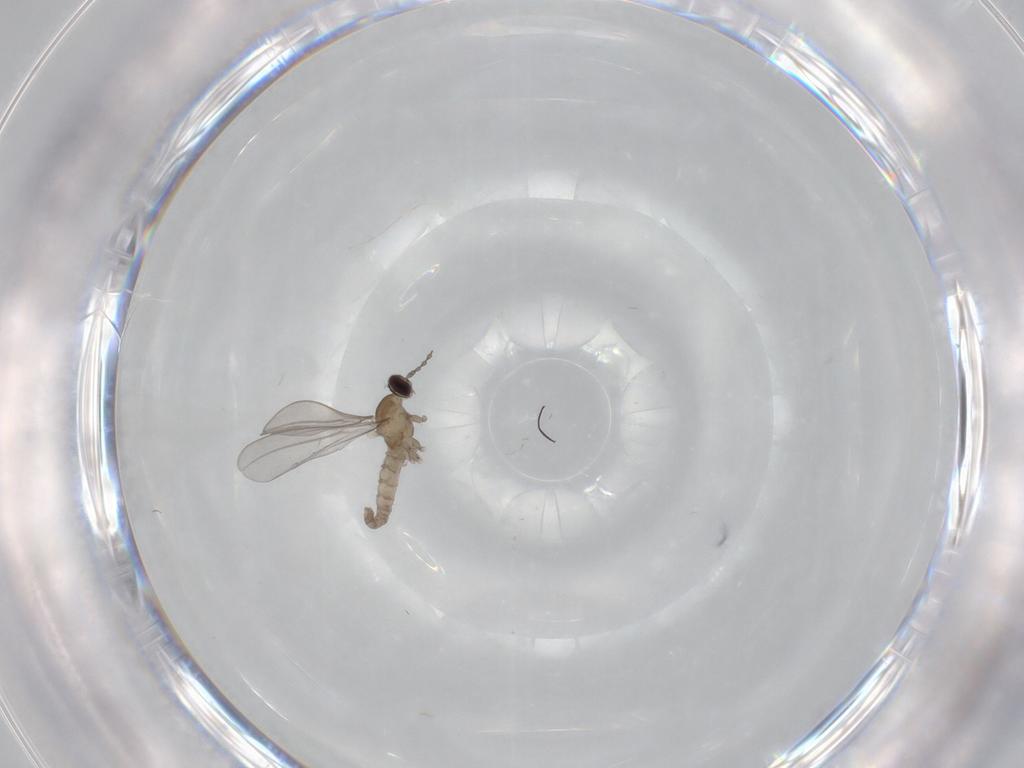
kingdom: Animalia
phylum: Arthropoda
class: Insecta
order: Diptera
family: Cecidomyiidae
